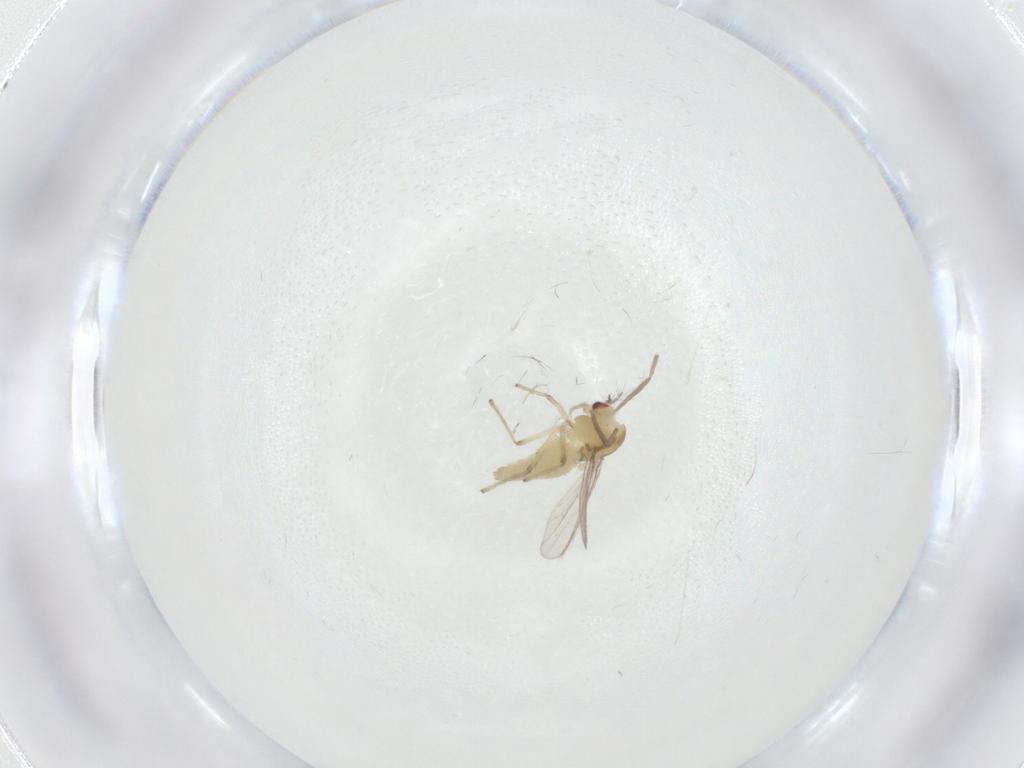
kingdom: Animalia
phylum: Arthropoda
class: Insecta
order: Diptera
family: Chironomidae
